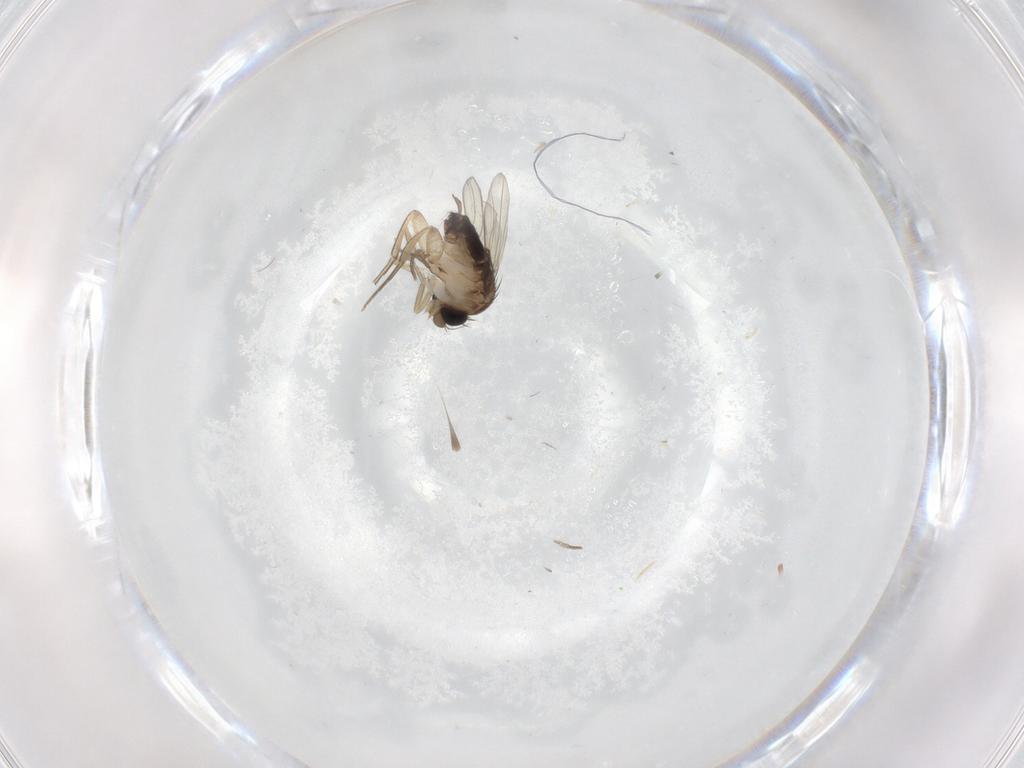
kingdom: Animalia
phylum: Arthropoda
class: Insecta
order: Diptera
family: Cecidomyiidae
